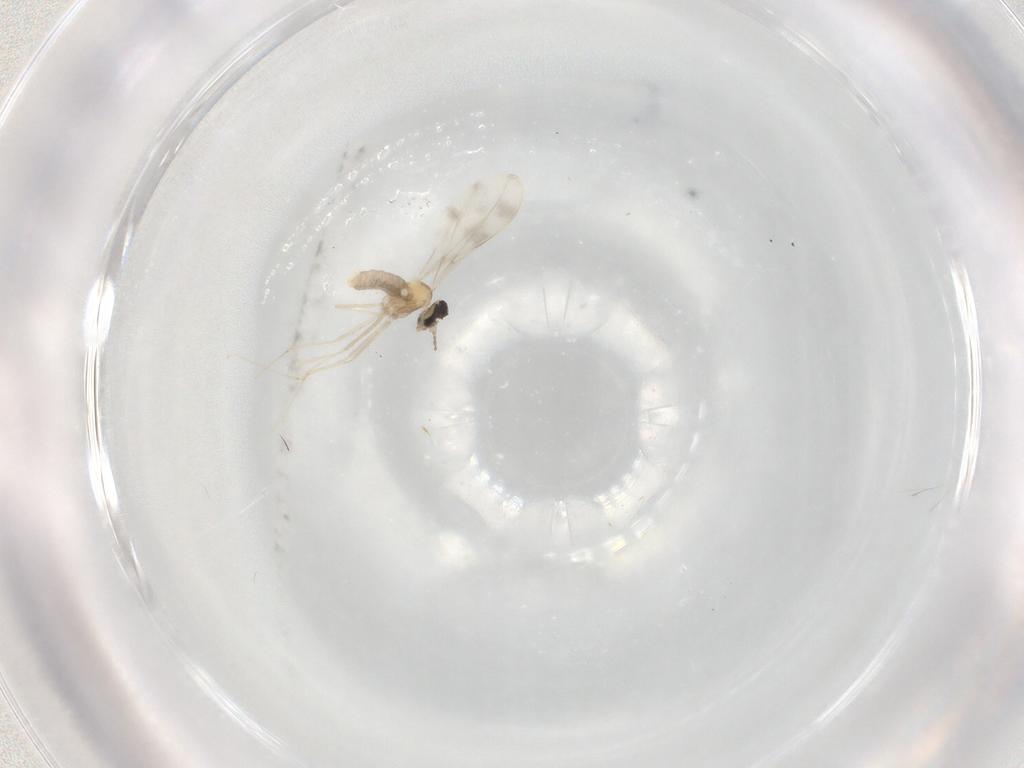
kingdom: Animalia
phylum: Arthropoda
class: Insecta
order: Diptera
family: Cecidomyiidae
